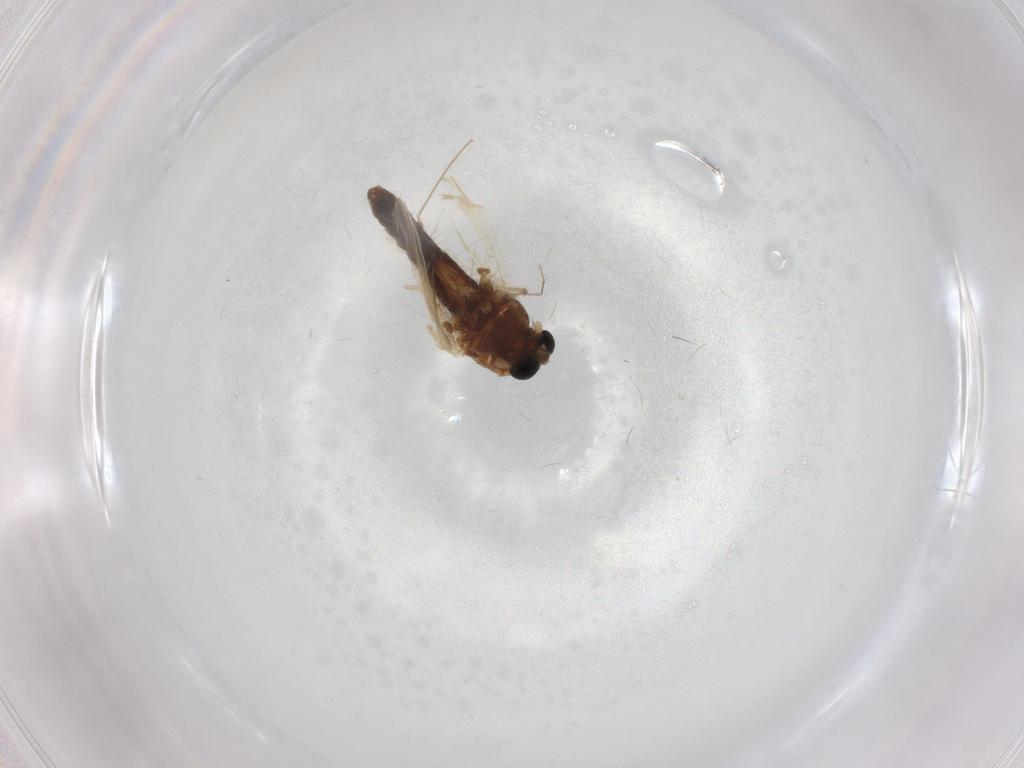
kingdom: Animalia
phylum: Arthropoda
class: Insecta
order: Diptera
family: Chironomidae
